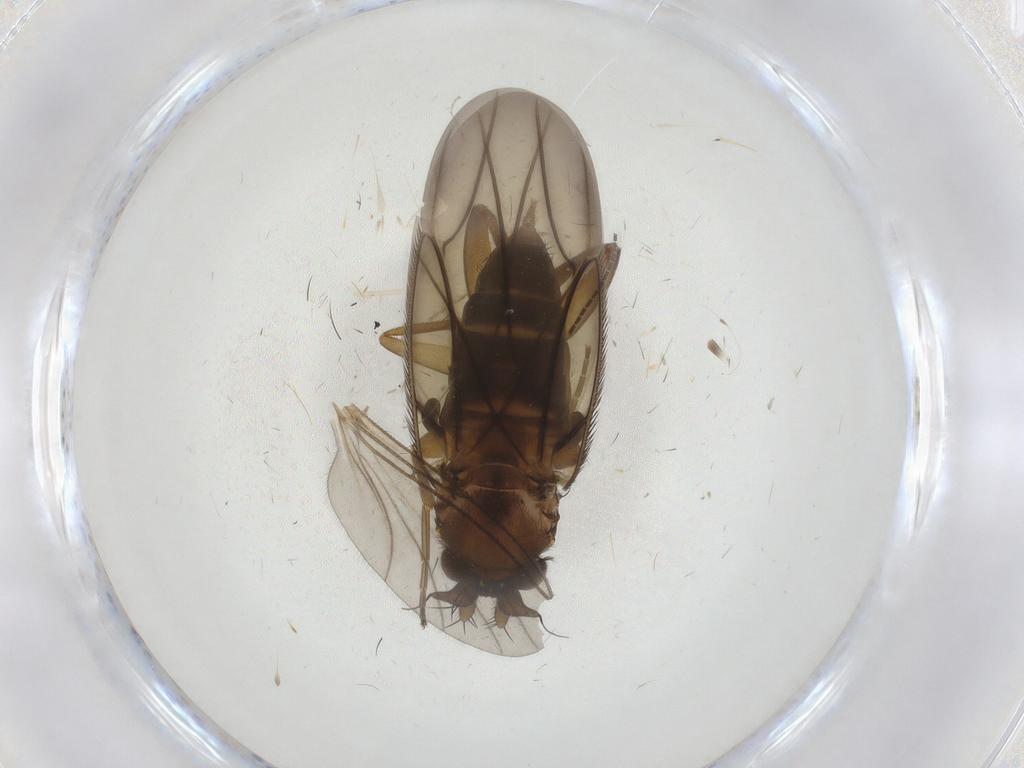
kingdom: Animalia
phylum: Arthropoda
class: Insecta
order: Diptera
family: Phoridae
